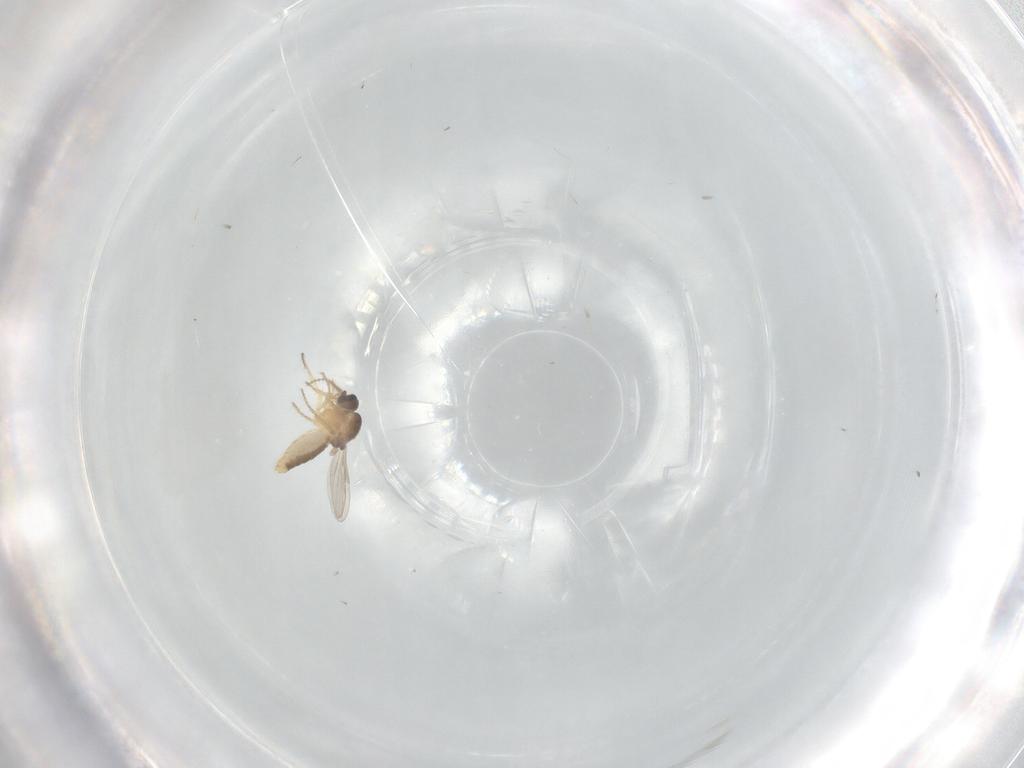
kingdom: Animalia
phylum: Arthropoda
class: Insecta
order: Diptera
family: Ceratopogonidae
